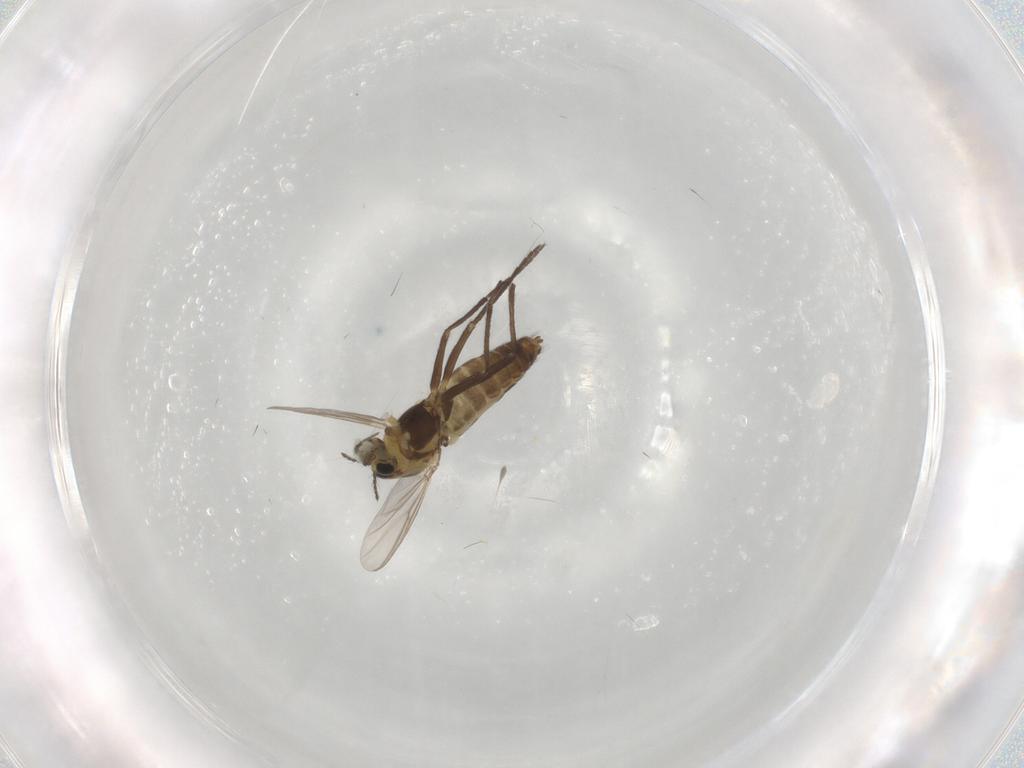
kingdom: Animalia
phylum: Arthropoda
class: Insecta
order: Diptera
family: Chironomidae
